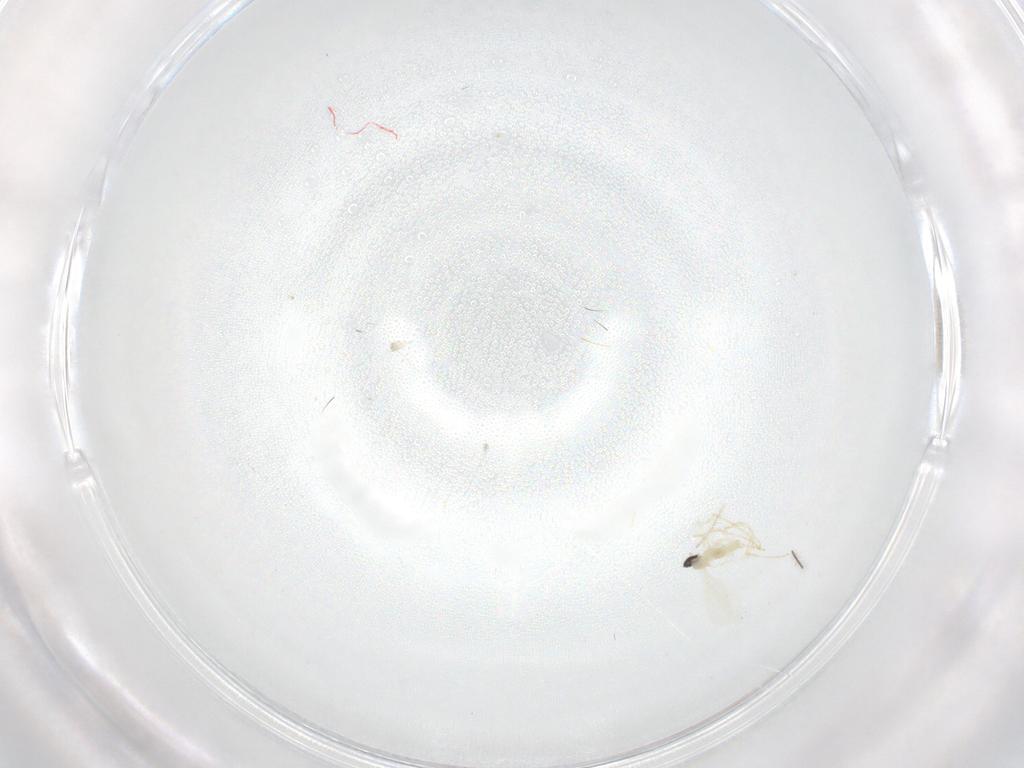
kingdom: Animalia
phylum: Arthropoda
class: Insecta
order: Diptera
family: Cecidomyiidae
